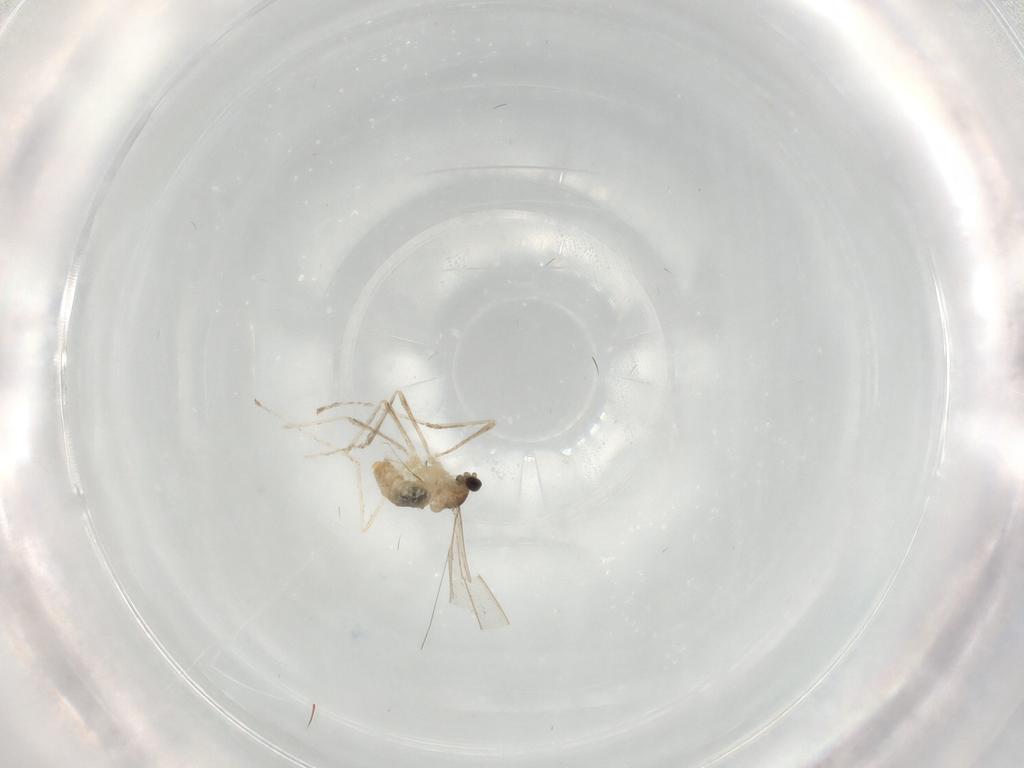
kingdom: Animalia
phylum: Arthropoda
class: Insecta
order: Diptera
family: Cecidomyiidae
